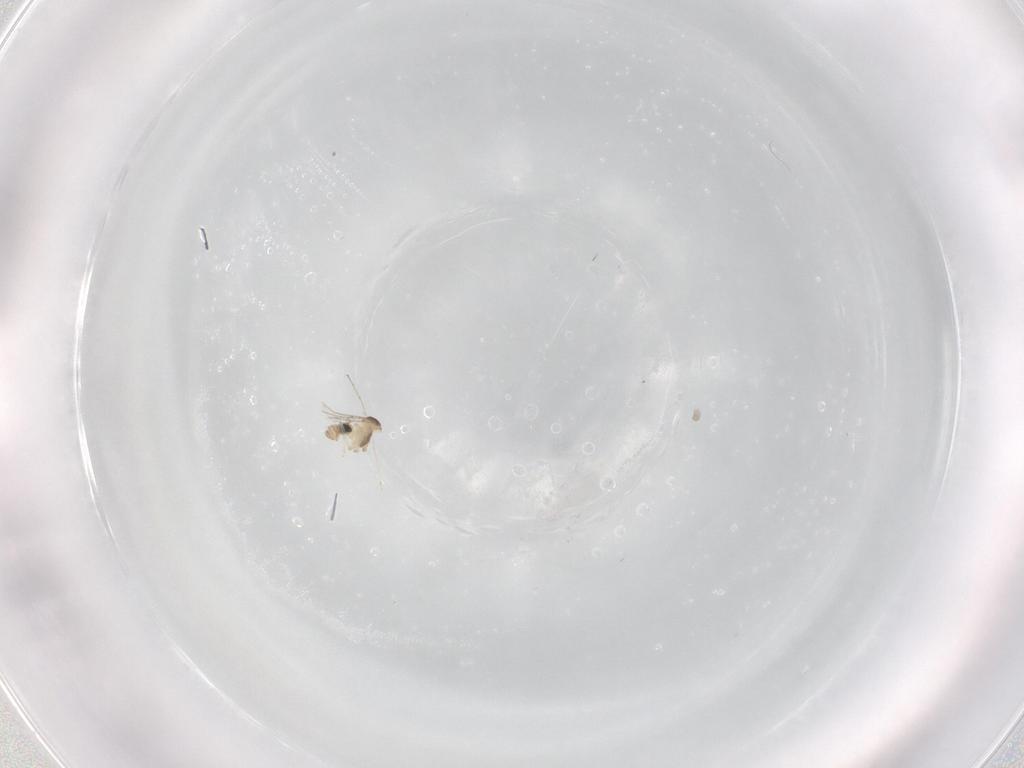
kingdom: Animalia
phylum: Arthropoda
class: Insecta
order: Diptera
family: Cecidomyiidae
